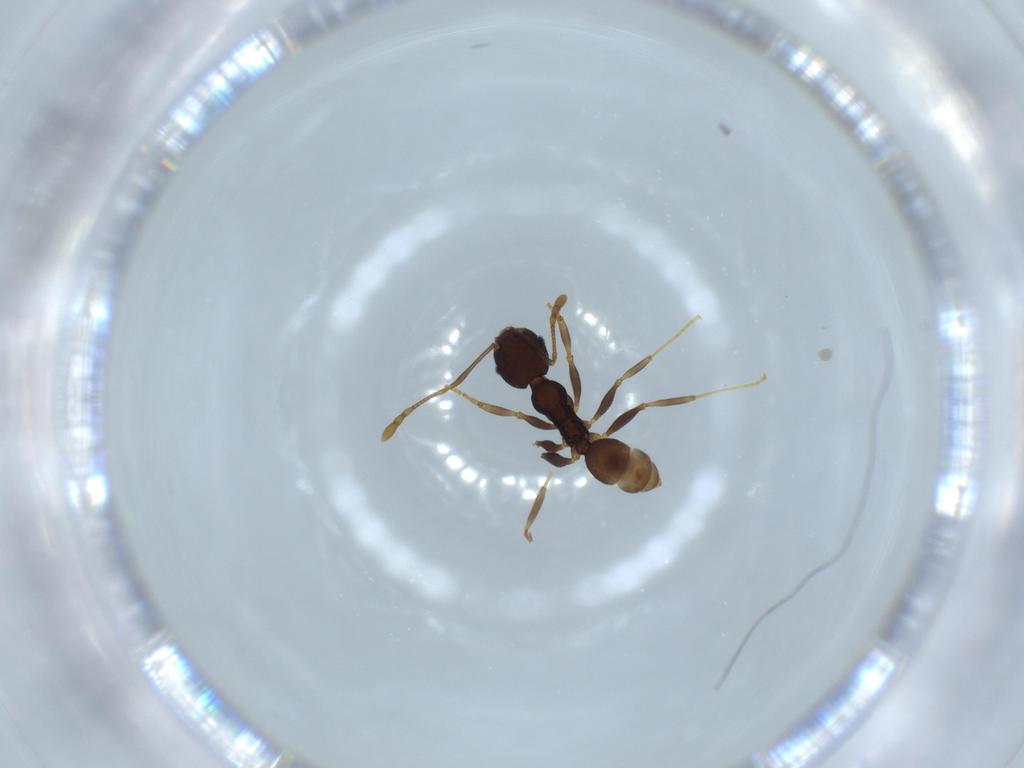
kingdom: Animalia
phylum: Arthropoda
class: Insecta
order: Hymenoptera
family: Formicidae
